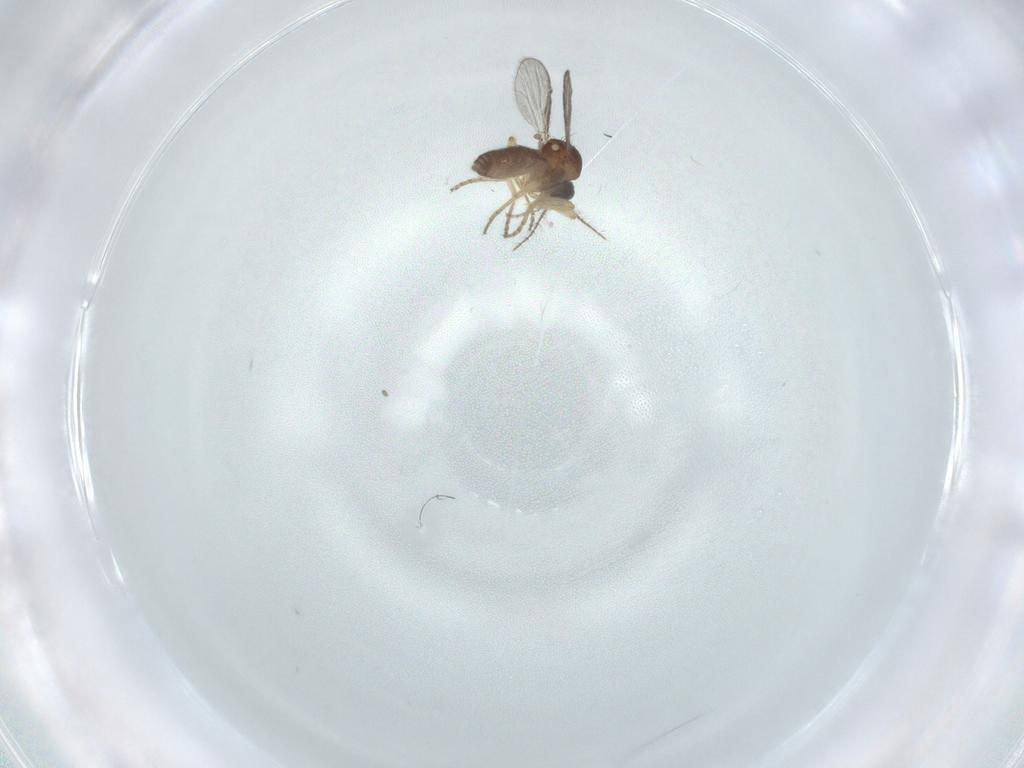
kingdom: Animalia
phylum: Arthropoda
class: Insecta
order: Diptera
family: Ceratopogonidae
